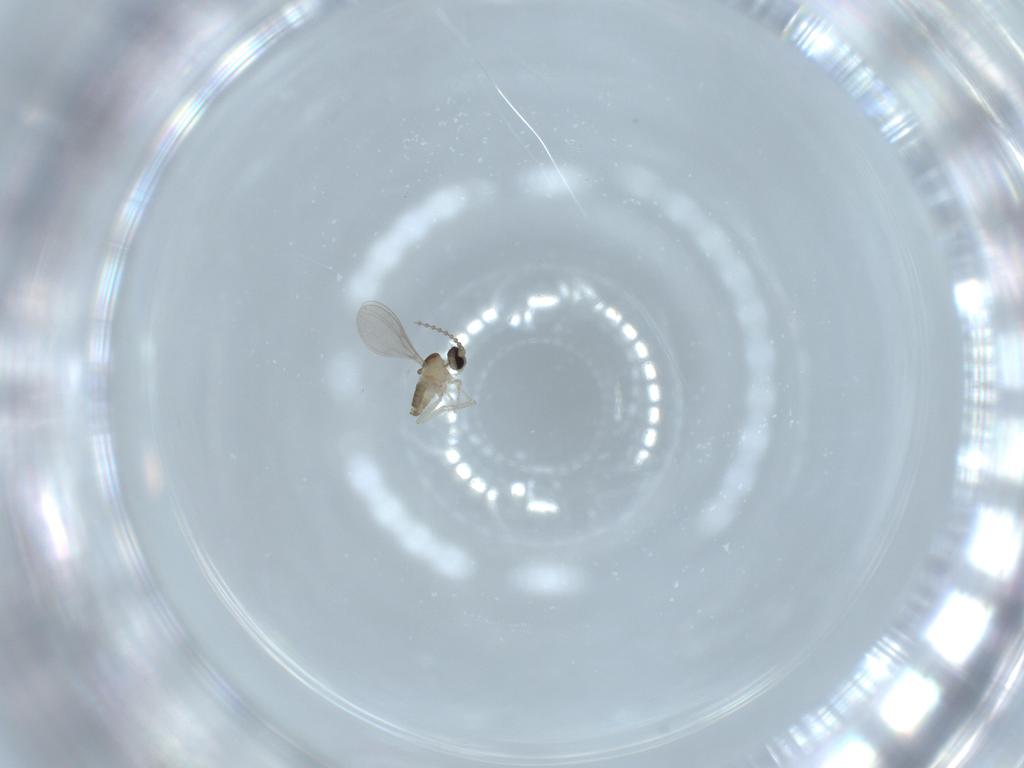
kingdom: Animalia
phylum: Arthropoda
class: Insecta
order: Diptera
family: Cecidomyiidae
